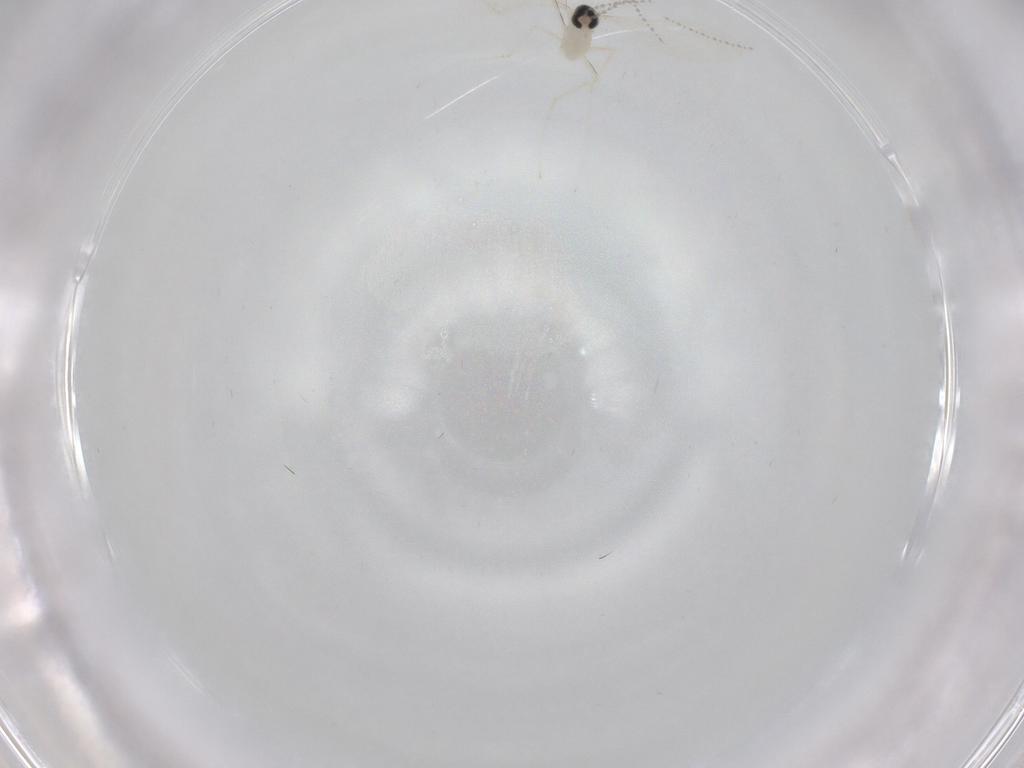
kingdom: Animalia
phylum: Arthropoda
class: Insecta
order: Diptera
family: Cecidomyiidae
